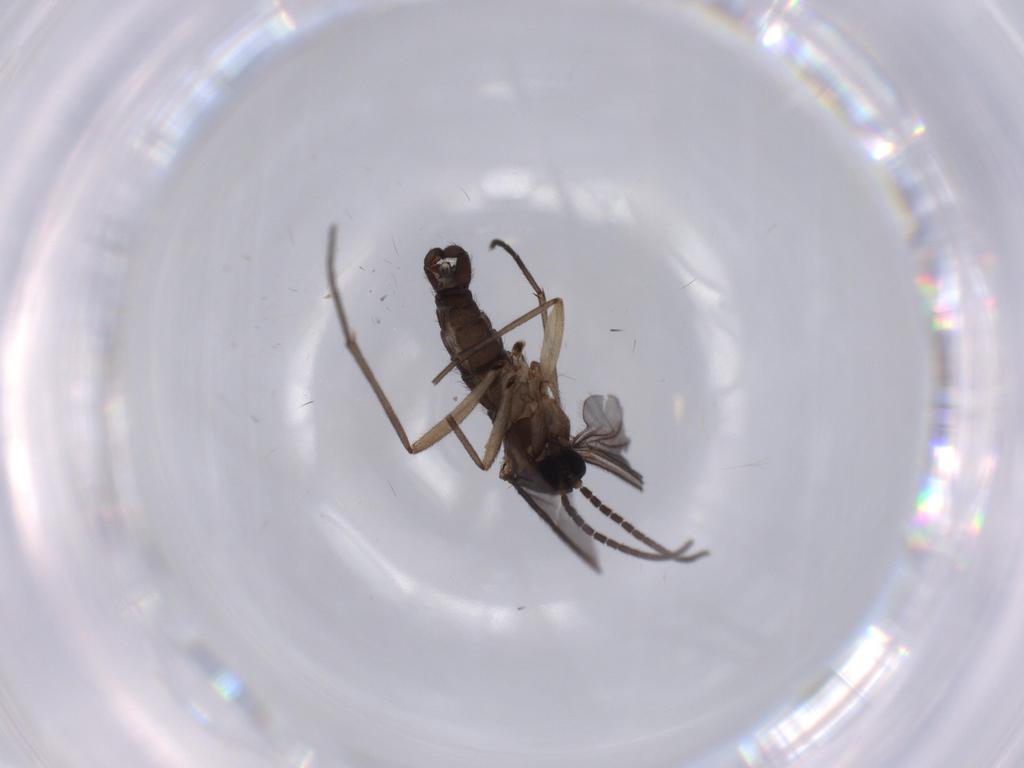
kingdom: Animalia
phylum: Arthropoda
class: Insecta
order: Diptera
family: Sciaridae
